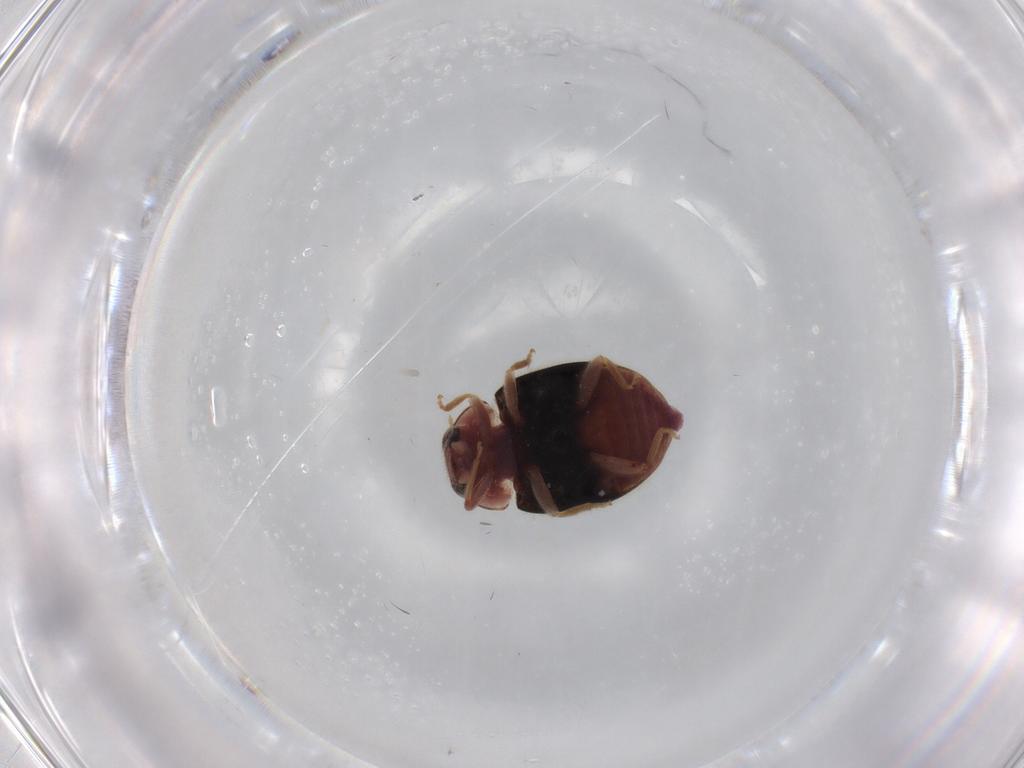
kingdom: Animalia
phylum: Arthropoda
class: Insecta
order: Coleoptera
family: Coccinellidae
